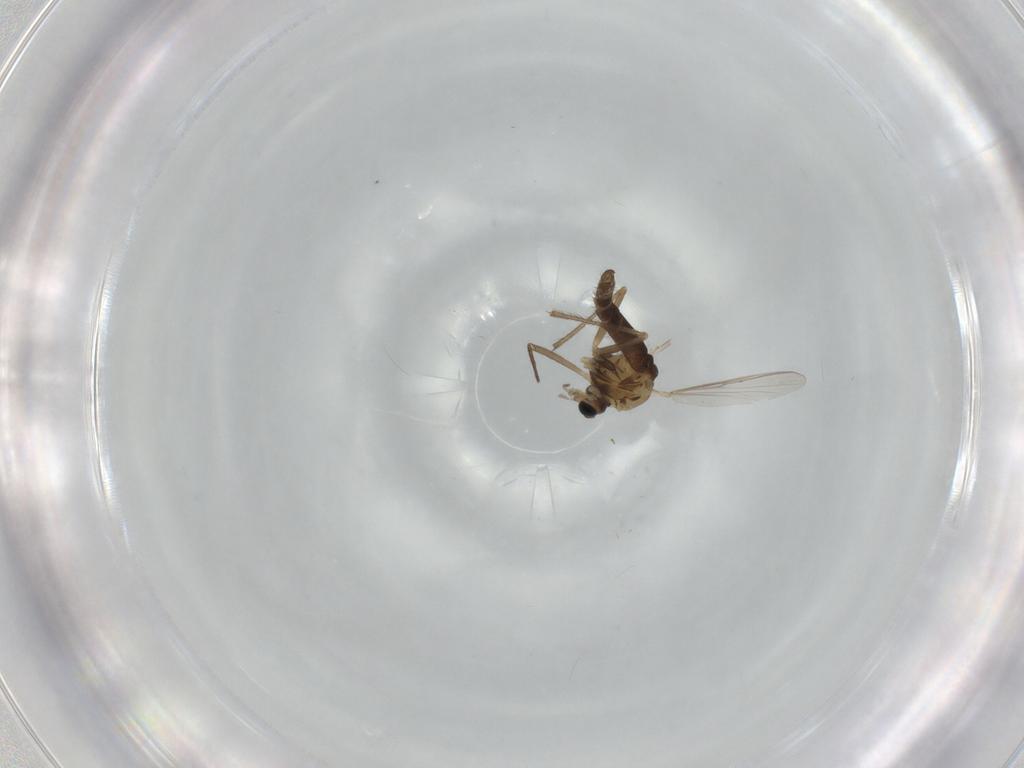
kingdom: Animalia
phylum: Arthropoda
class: Insecta
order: Diptera
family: Chironomidae
